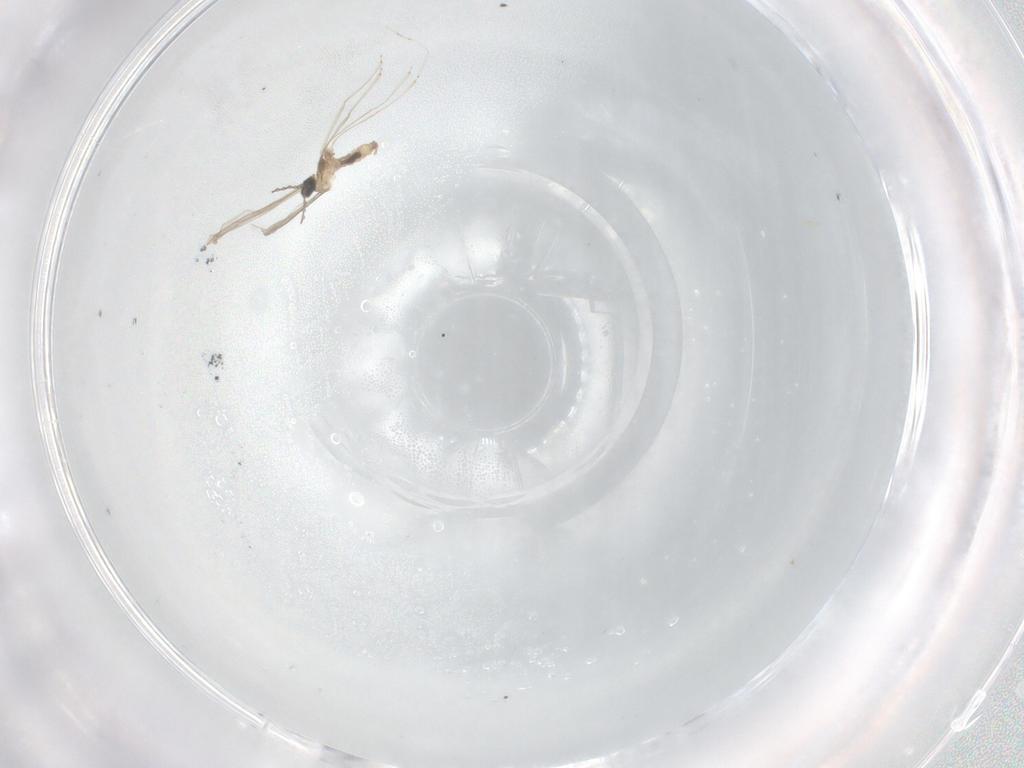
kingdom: Animalia
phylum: Arthropoda
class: Insecta
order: Diptera
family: Cecidomyiidae
